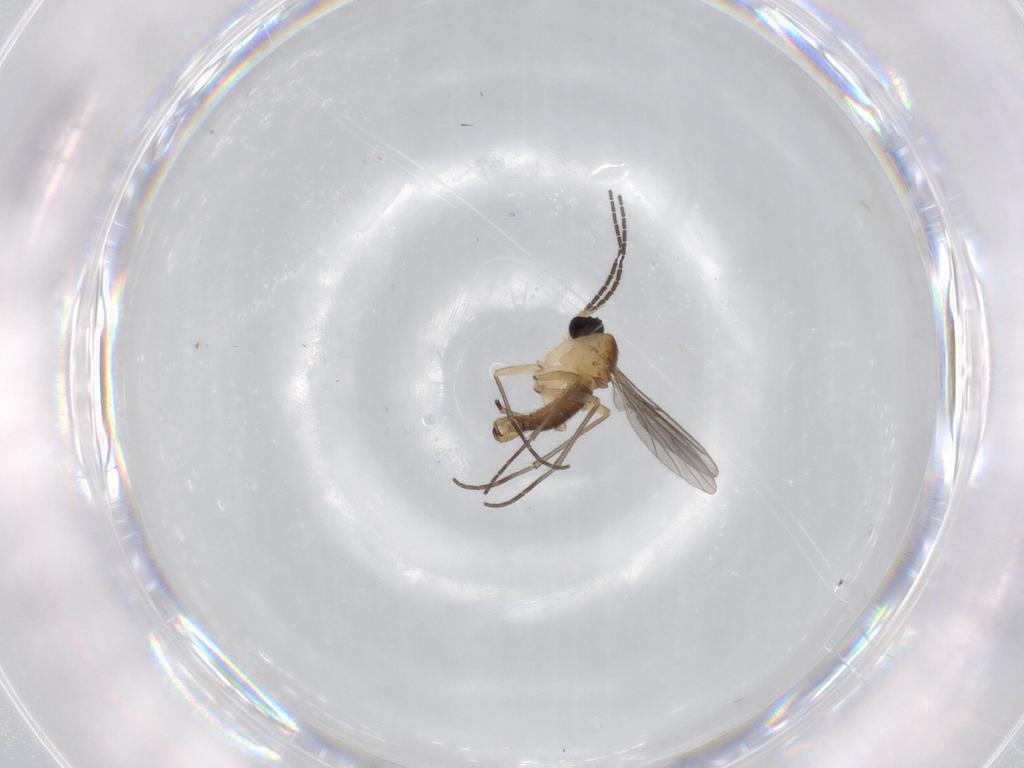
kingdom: Animalia
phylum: Arthropoda
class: Insecta
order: Diptera
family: Sciaridae
